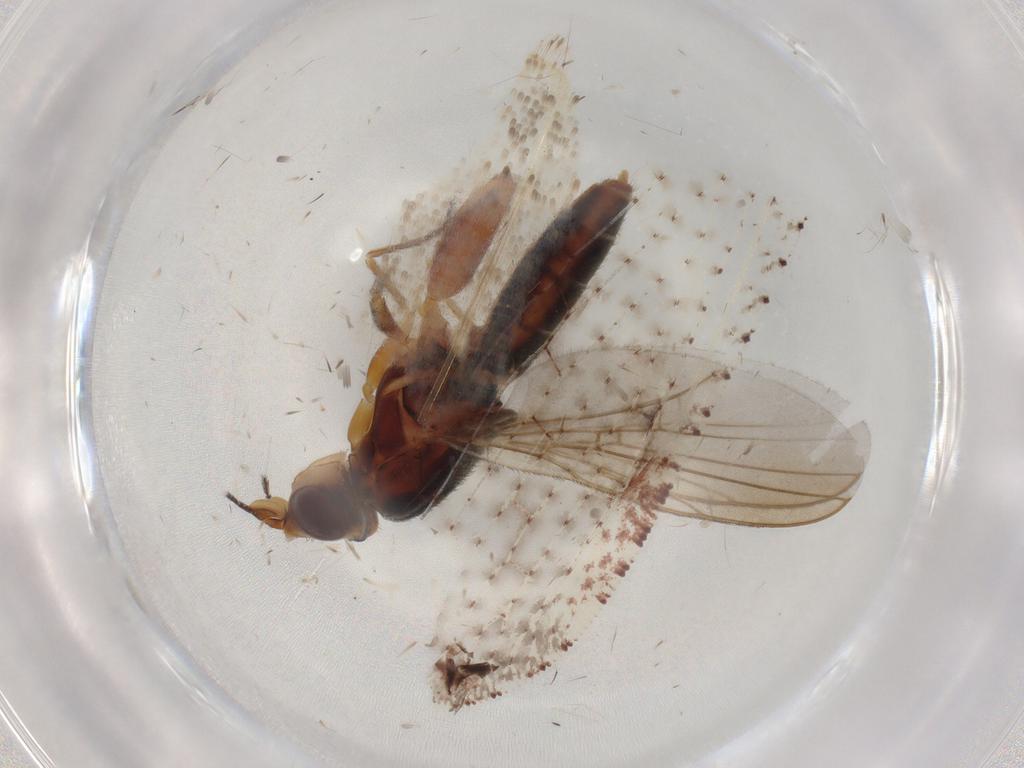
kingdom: Animalia
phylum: Arthropoda
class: Insecta
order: Diptera
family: Chloropidae
